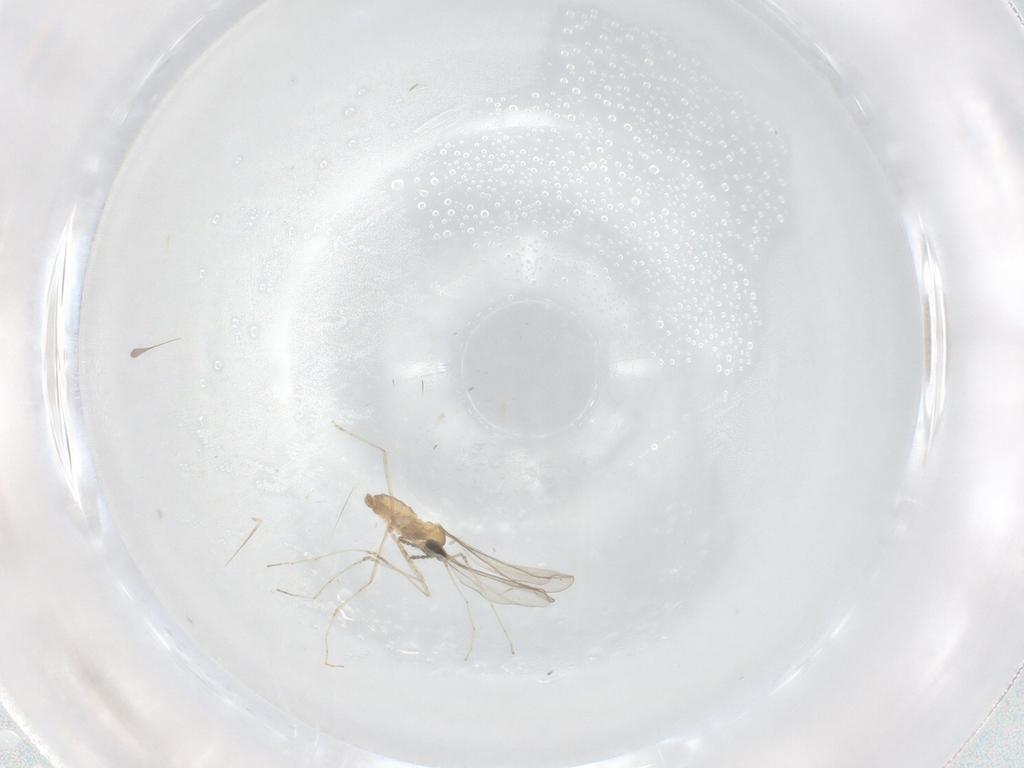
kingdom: Animalia
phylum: Arthropoda
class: Insecta
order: Diptera
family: Cecidomyiidae
